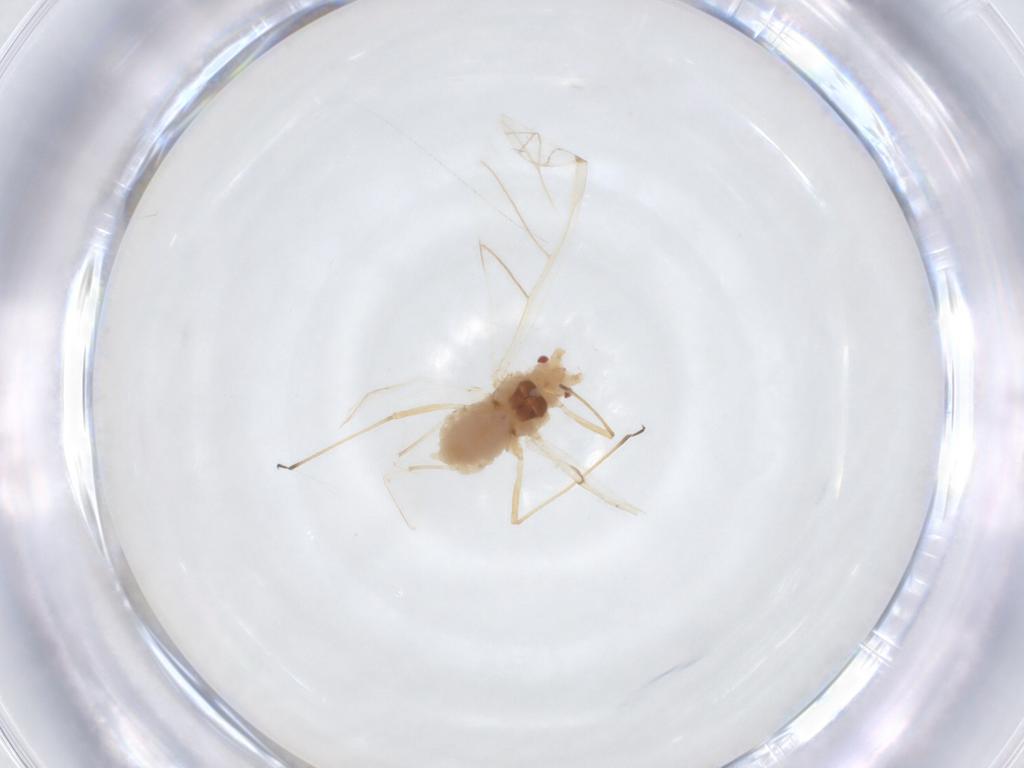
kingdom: Animalia
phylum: Arthropoda
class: Insecta
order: Hemiptera
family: Aphididae
